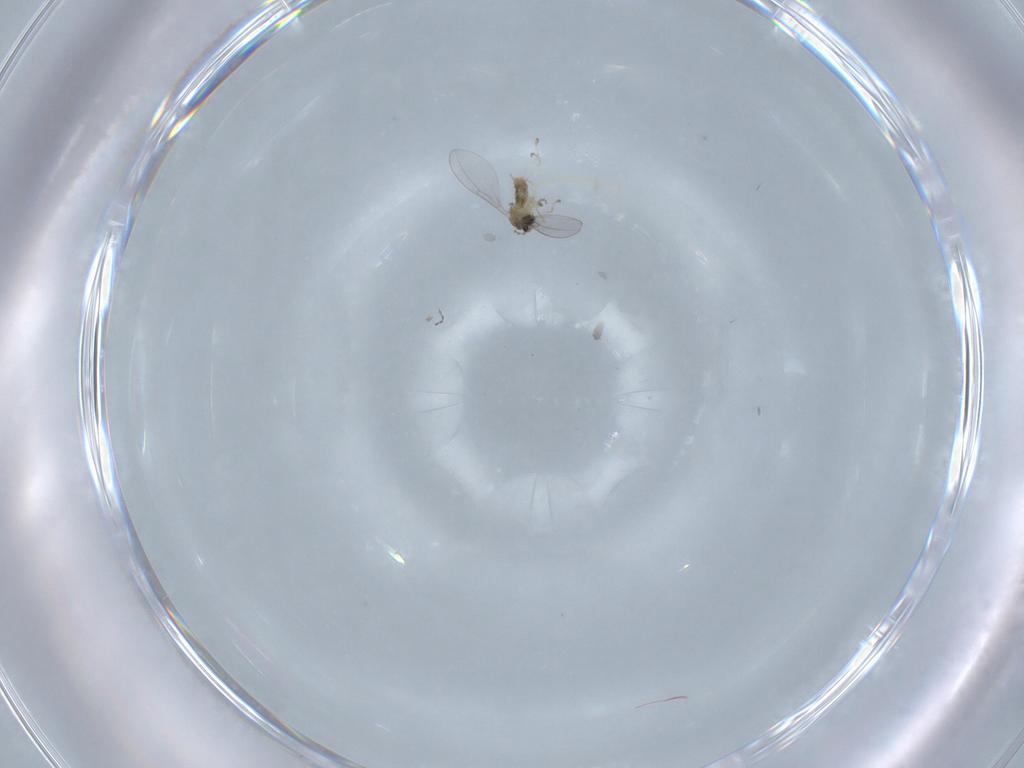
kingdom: Animalia
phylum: Arthropoda
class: Insecta
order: Diptera
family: Cecidomyiidae
